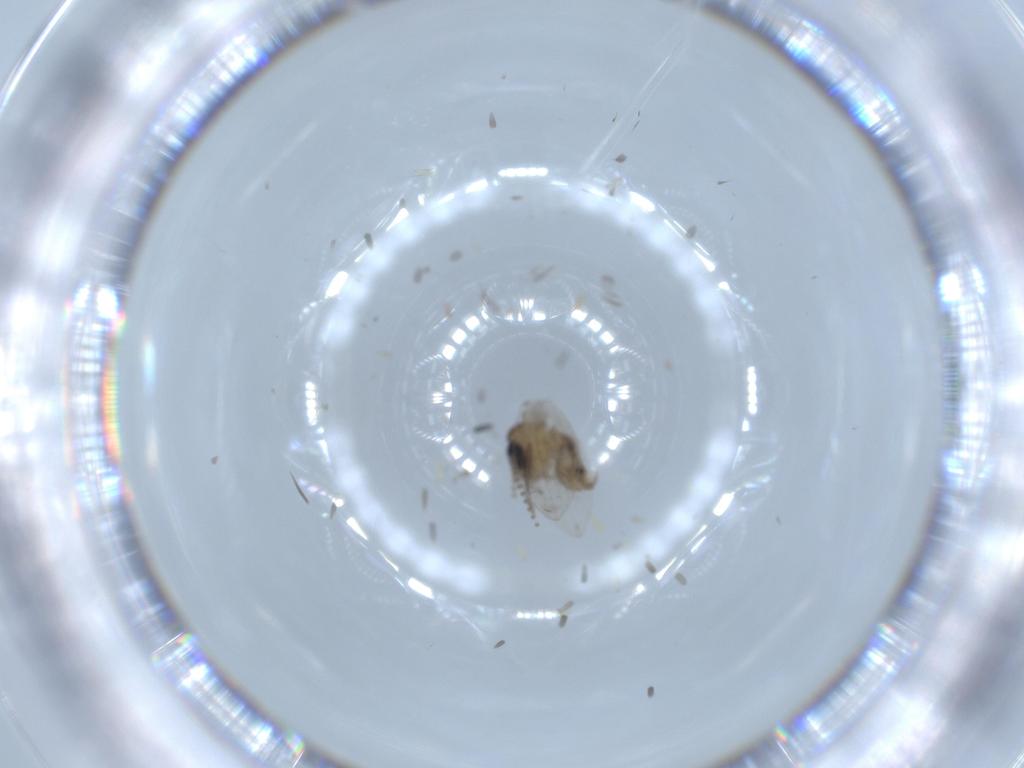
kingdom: Animalia
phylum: Arthropoda
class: Insecta
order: Diptera
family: Psychodidae
